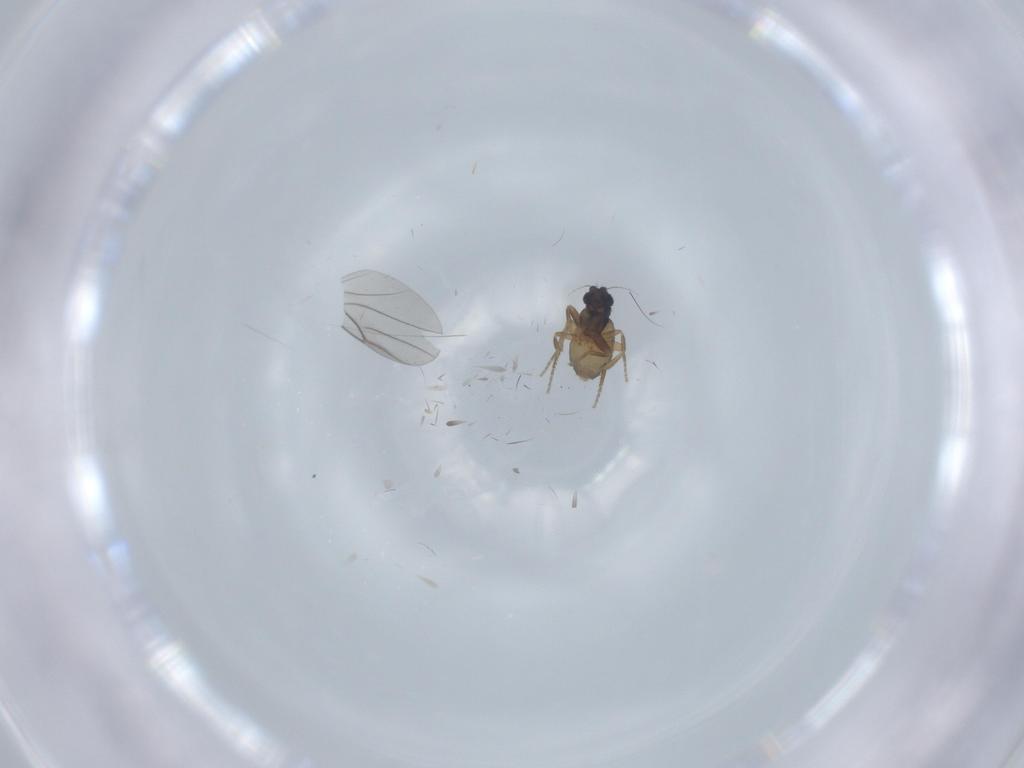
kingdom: Animalia
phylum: Arthropoda
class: Insecta
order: Diptera
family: Phoridae
